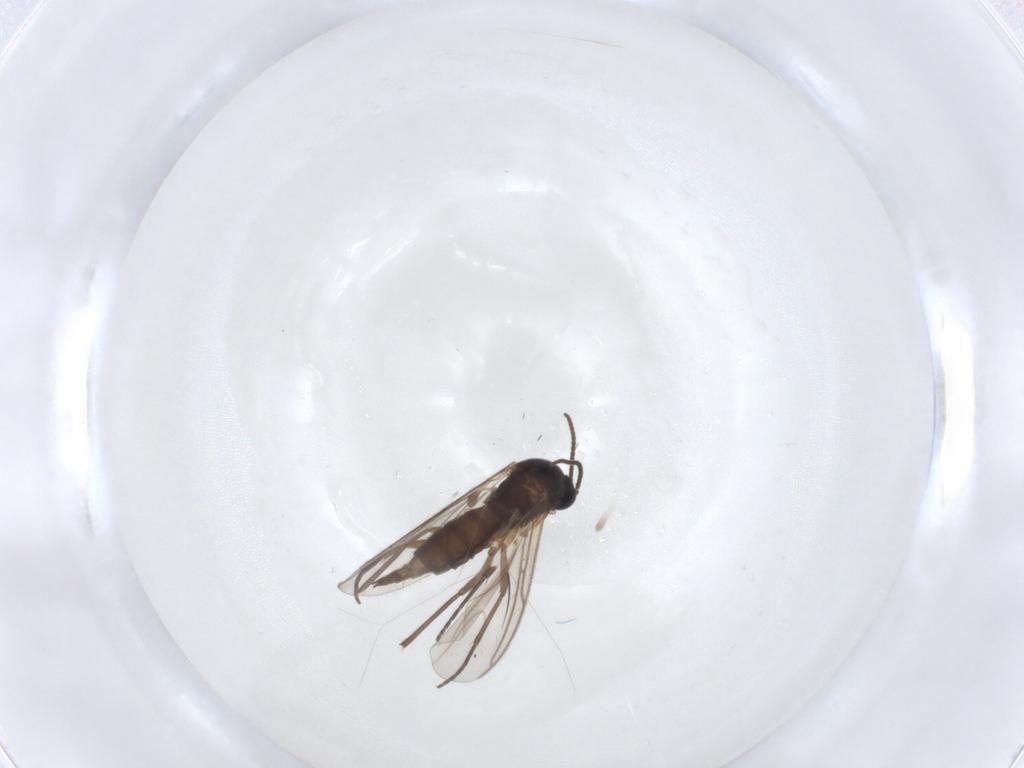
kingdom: Animalia
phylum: Arthropoda
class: Insecta
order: Diptera
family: Sciaridae
